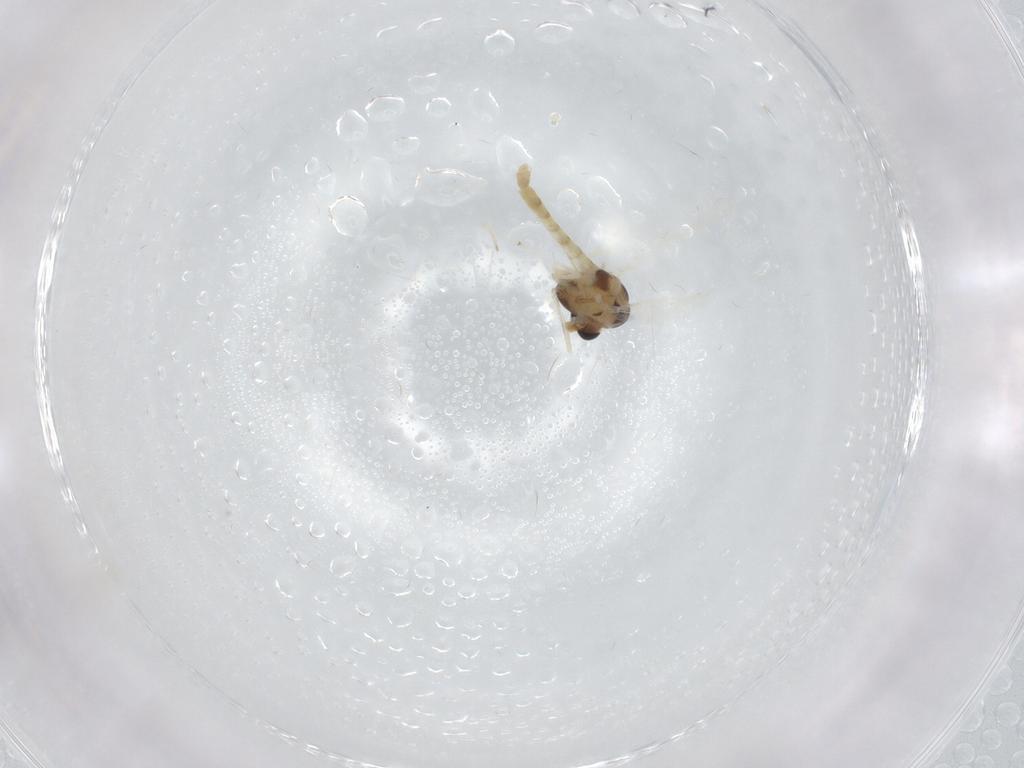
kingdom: Animalia
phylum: Arthropoda
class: Insecta
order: Diptera
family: Chironomidae
